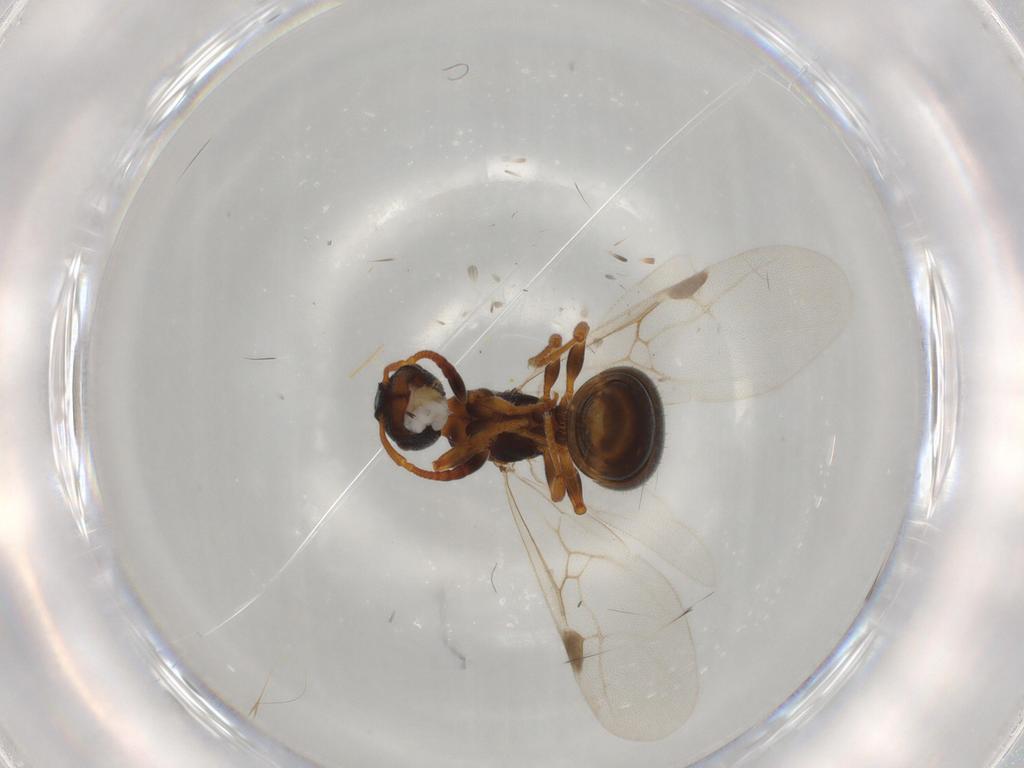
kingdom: Animalia
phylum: Arthropoda
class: Insecta
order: Hymenoptera
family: Formicidae
